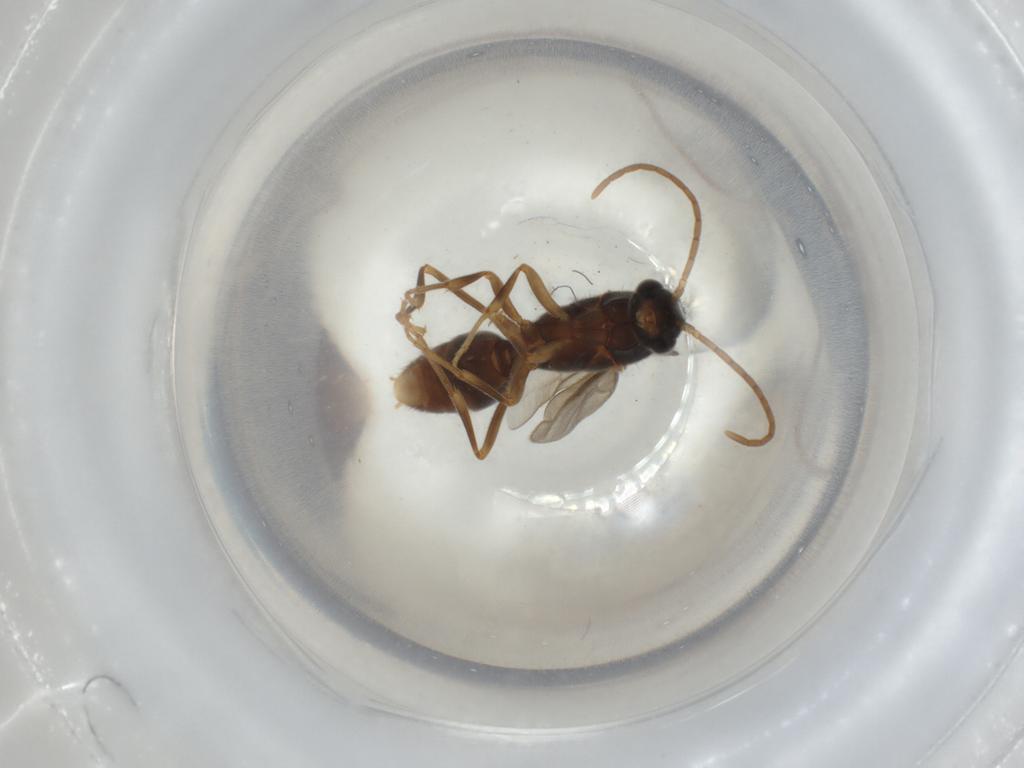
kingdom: Animalia
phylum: Arthropoda
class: Insecta
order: Hymenoptera
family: Formicidae
